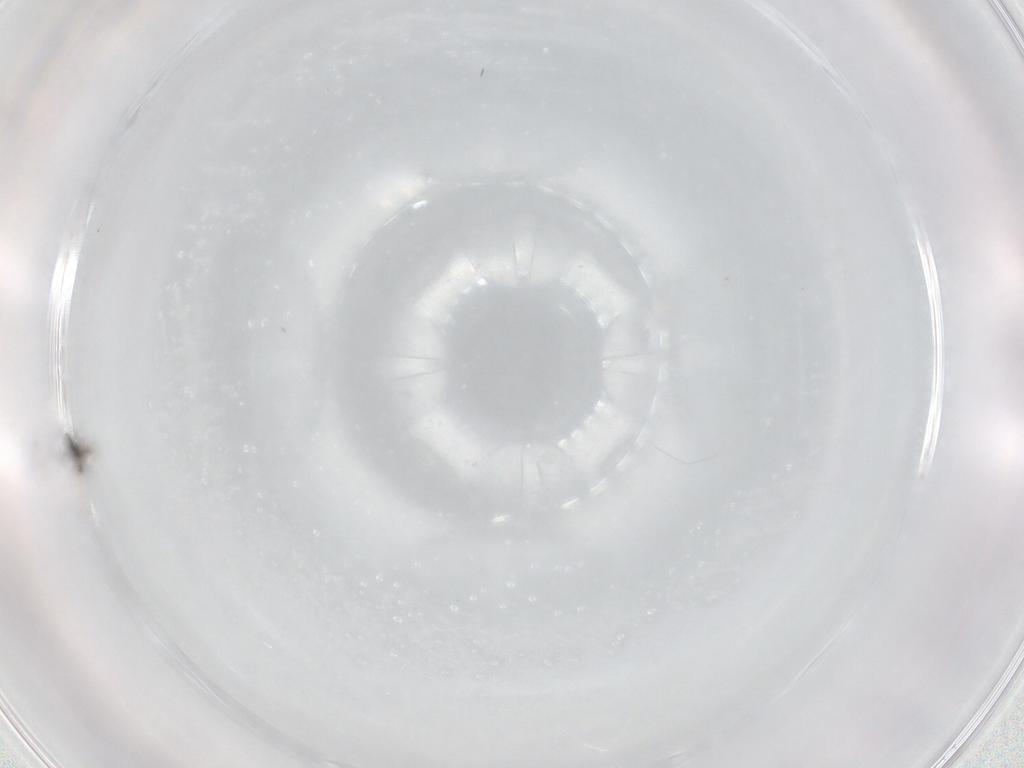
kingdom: Animalia
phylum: Arthropoda
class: Insecta
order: Hymenoptera
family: Mymaridae
